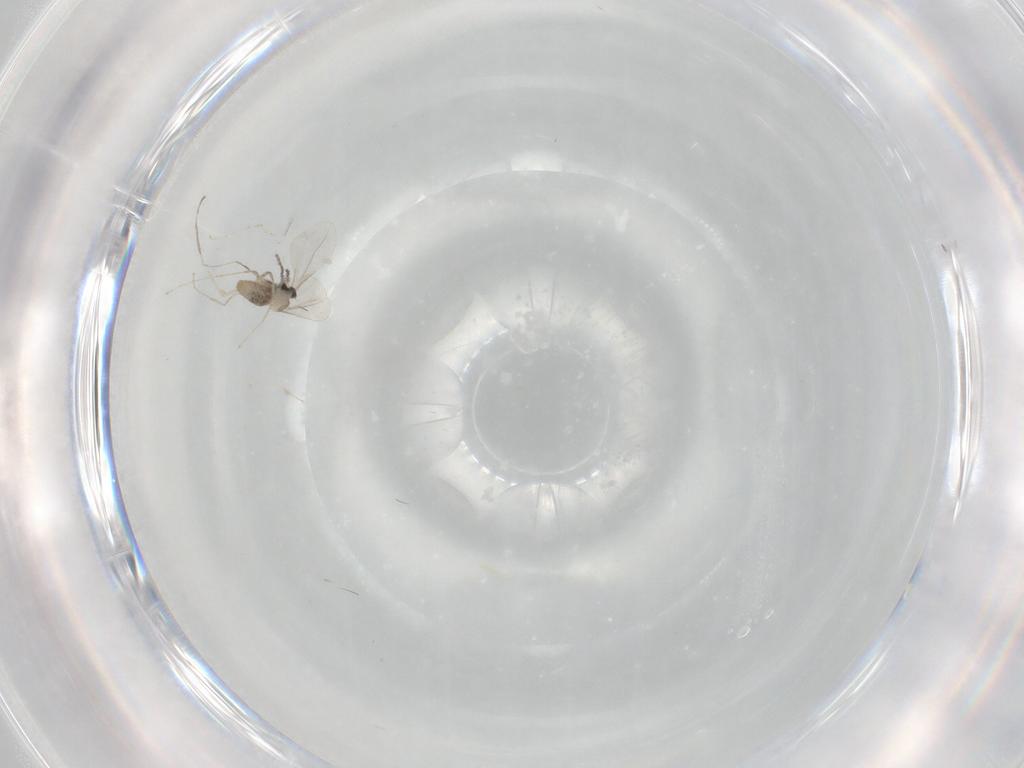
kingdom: Animalia
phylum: Arthropoda
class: Insecta
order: Diptera
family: Cecidomyiidae
